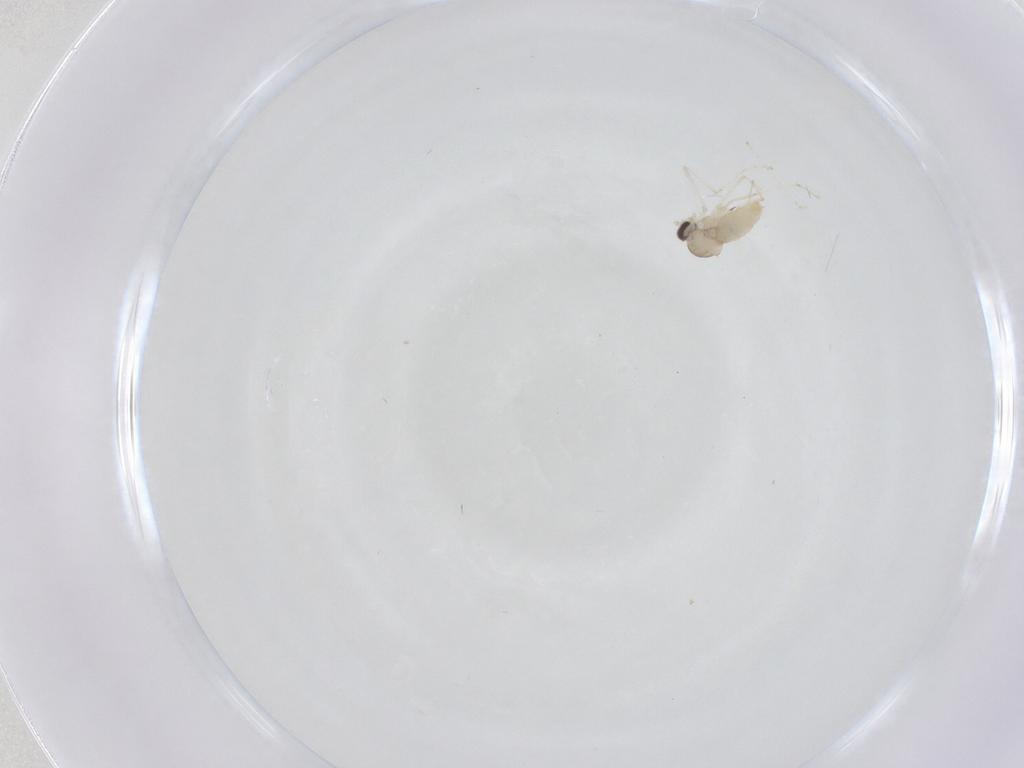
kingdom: Animalia
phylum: Arthropoda
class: Insecta
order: Diptera
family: Cecidomyiidae
